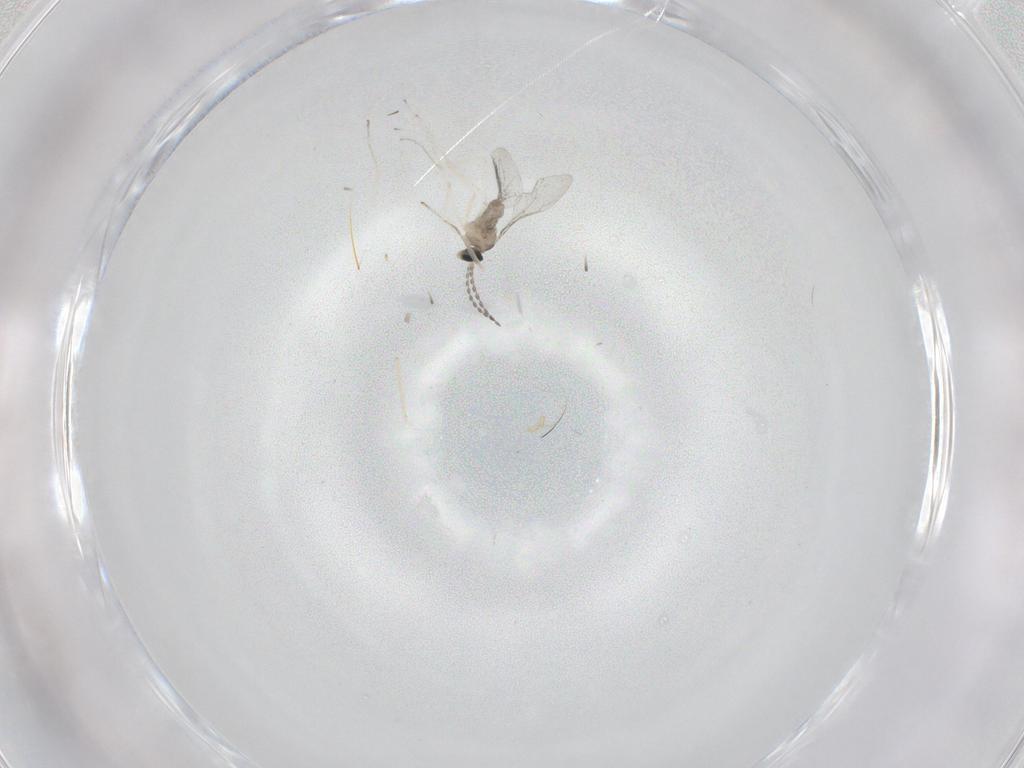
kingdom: Animalia
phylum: Arthropoda
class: Insecta
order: Diptera
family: Cecidomyiidae
